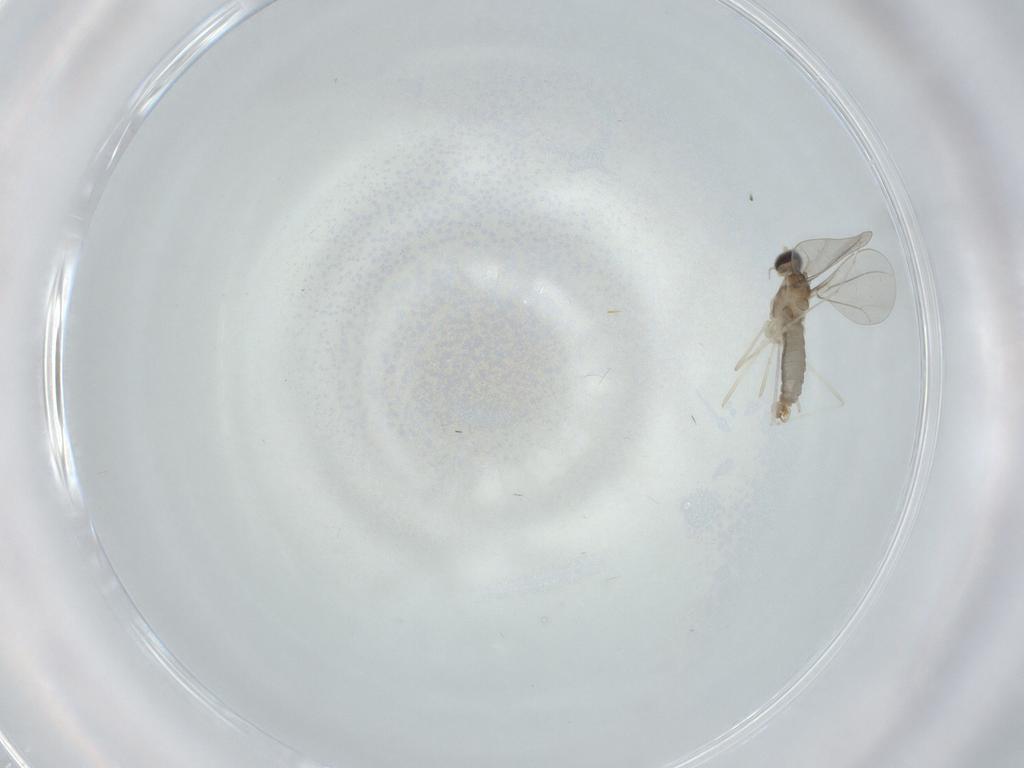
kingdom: Animalia
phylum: Arthropoda
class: Insecta
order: Diptera
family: Cecidomyiidae
